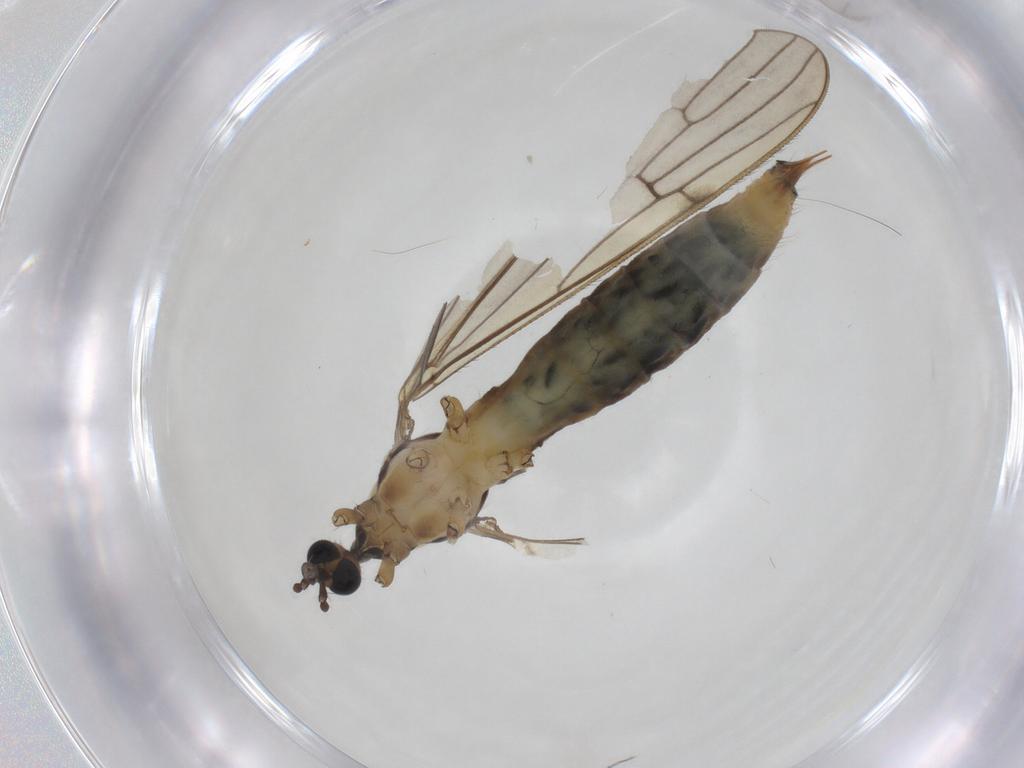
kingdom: Animalia
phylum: Arthropoda
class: Insecta
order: Diptera
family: Limoniidae
